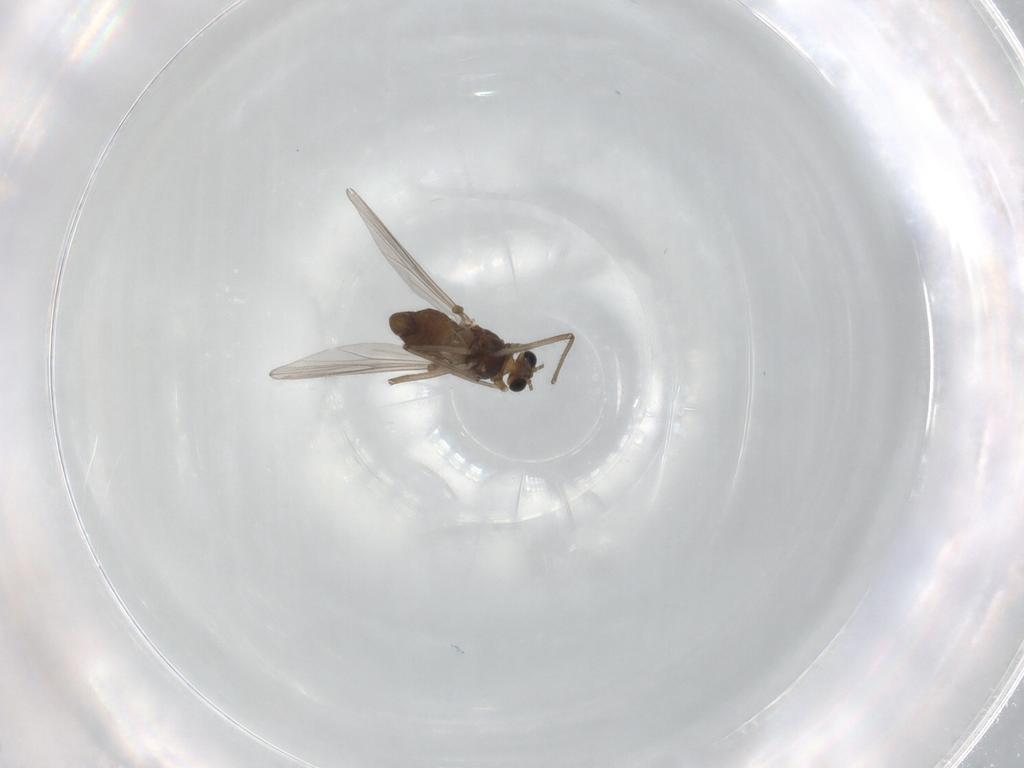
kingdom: Animalia
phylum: Arthropoda
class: Insecta
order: Diptera
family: Chironomidae
